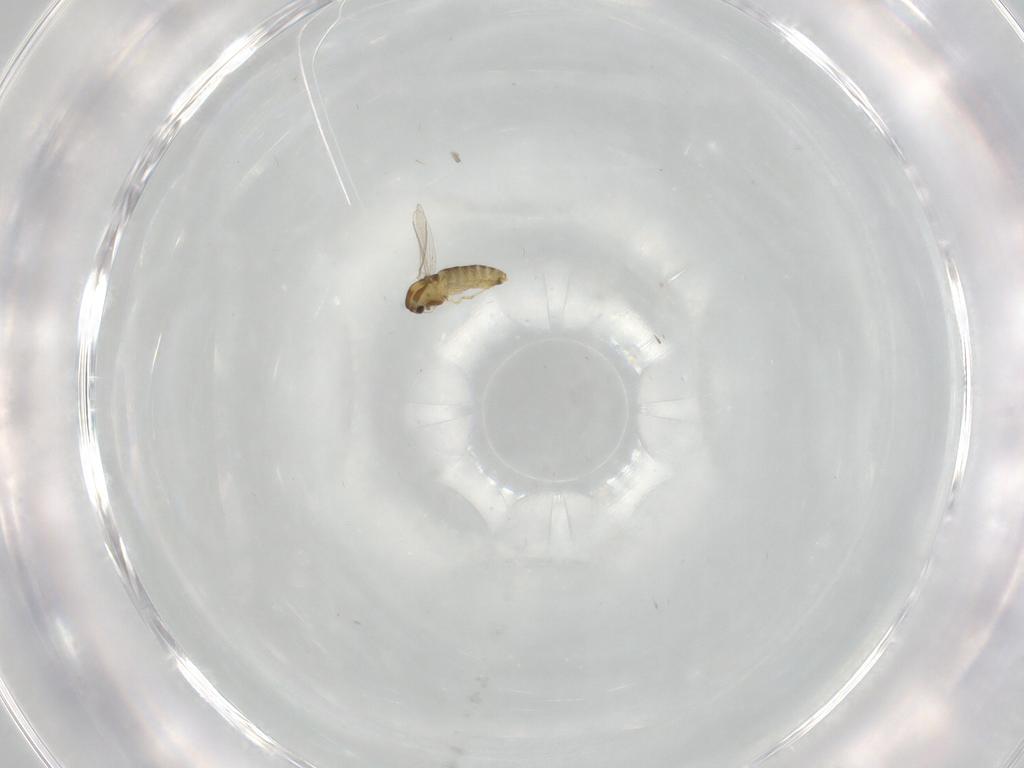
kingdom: Animalia
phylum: Arthropoda
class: Insecta
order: Diptera
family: Chironomidae
